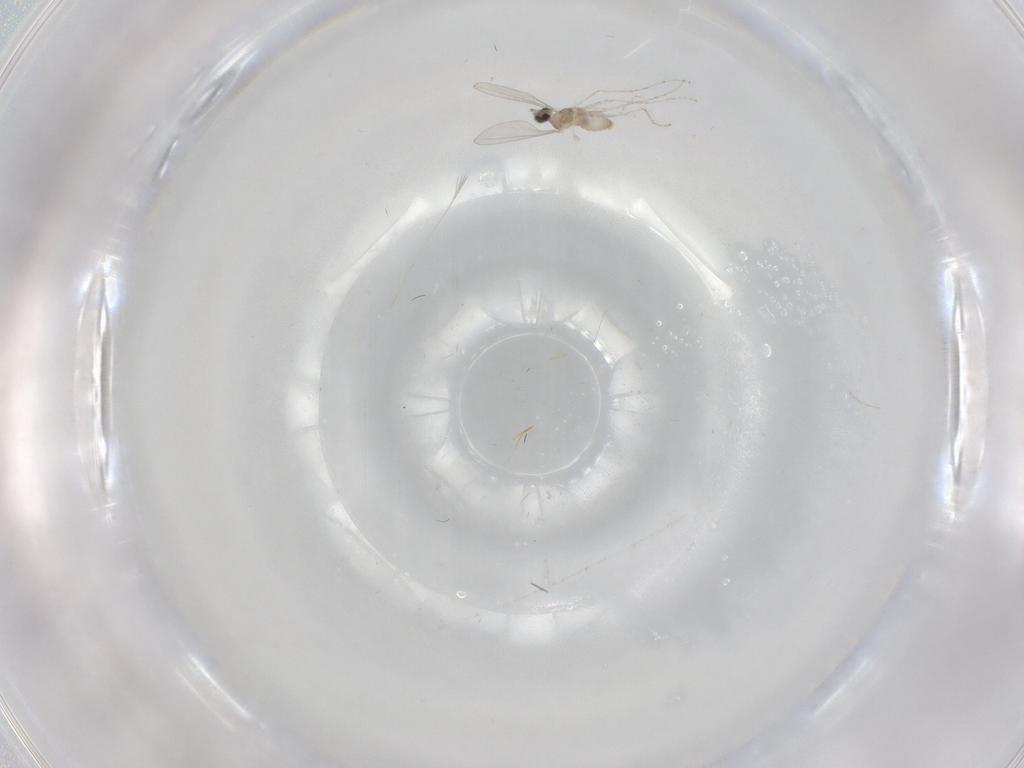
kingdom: Animalia
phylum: Arthropoda
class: Insecta
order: Diptera
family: Cecidomyiidae
